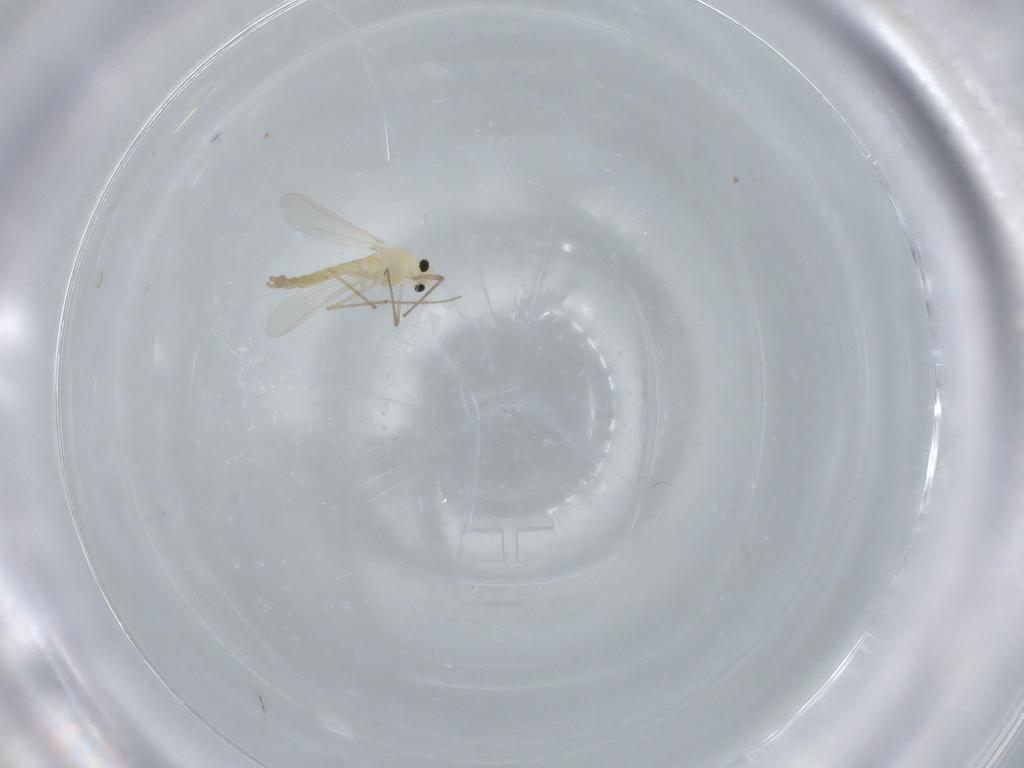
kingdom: Animalia
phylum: Arthropoda
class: Insecta
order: Diptera
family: Chironomidae
